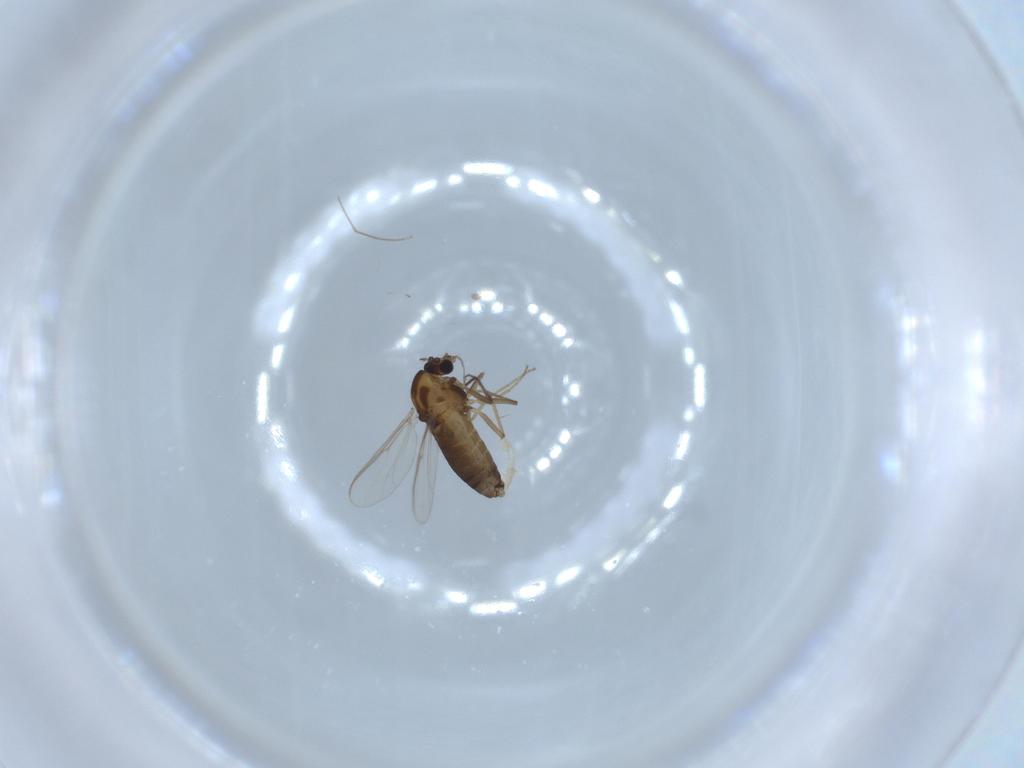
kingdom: Animalia
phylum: Arthropoda
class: Insecta
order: Diptera
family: Chironomidae
